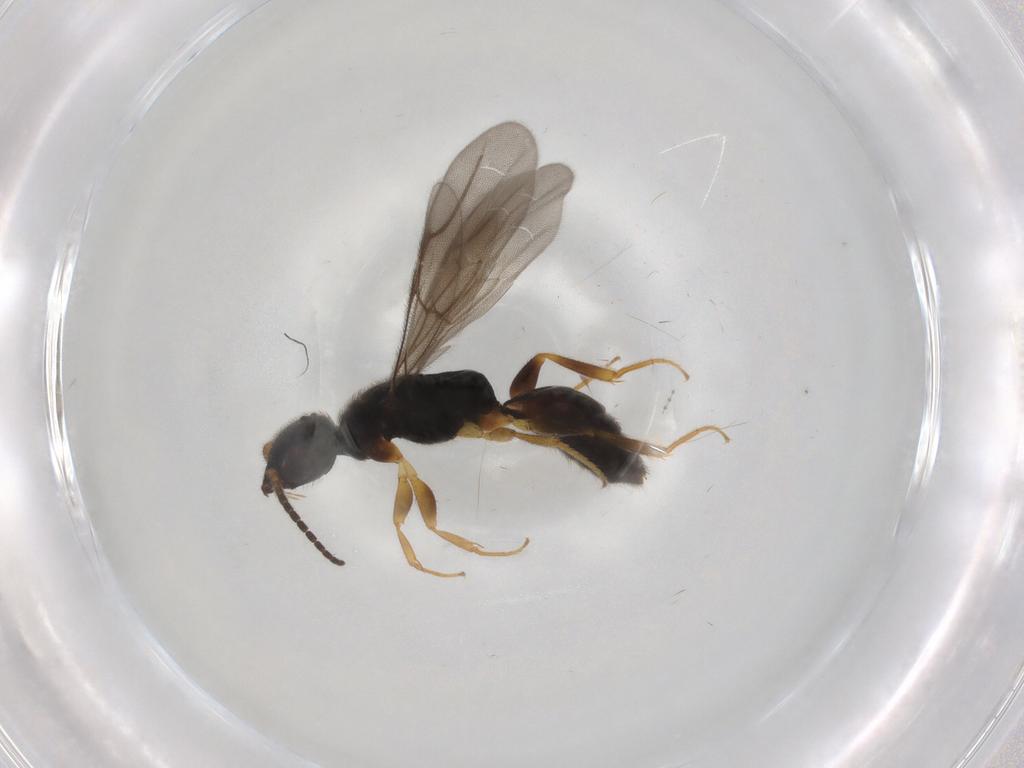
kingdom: Animalia
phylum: Arthropoda
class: Insecta
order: Hymenoptera
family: Bethylidae
